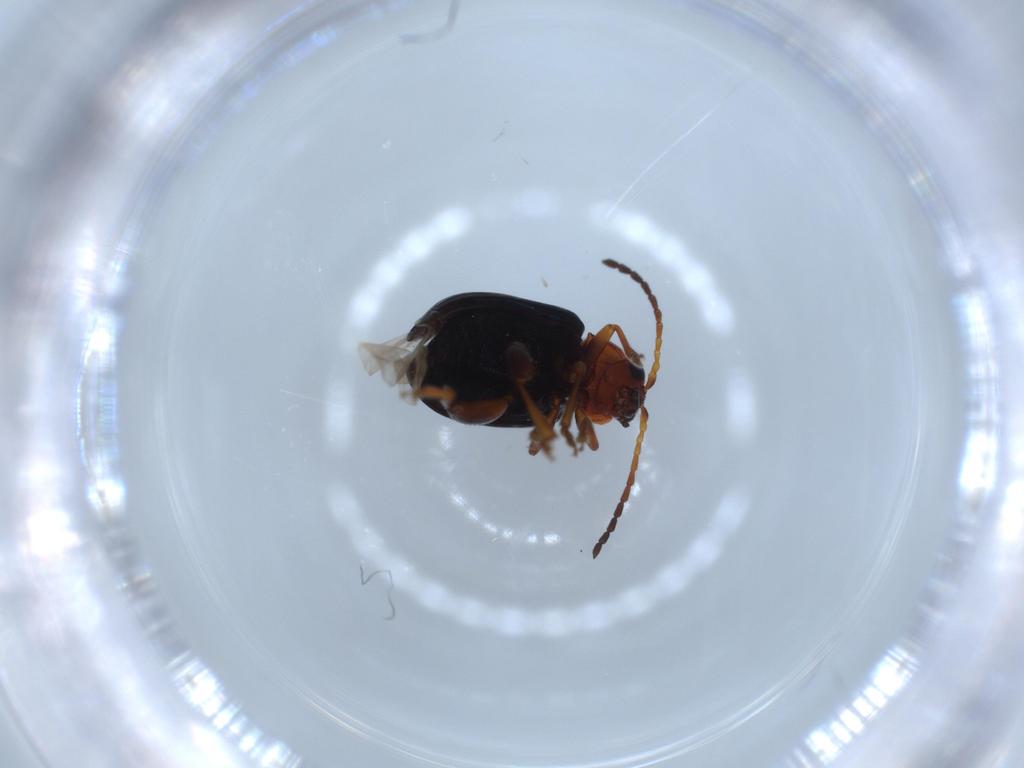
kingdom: Animalia
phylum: Arthropoda
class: Insecta
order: Coleoptera
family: Chrysomelidae
